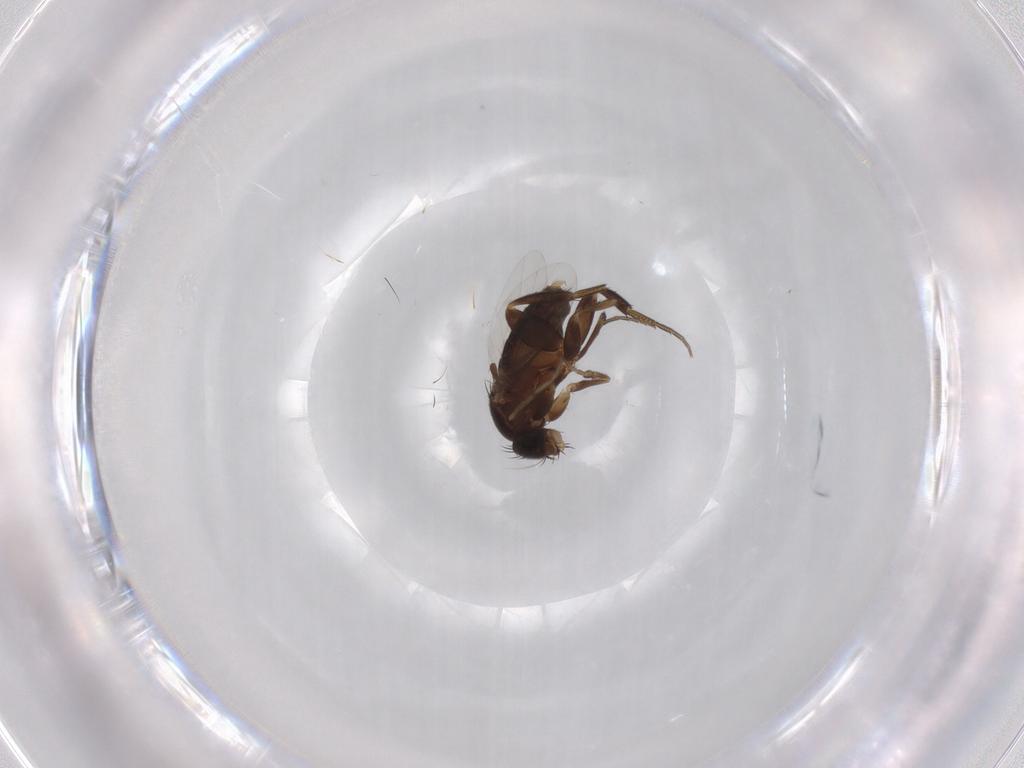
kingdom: Animalia
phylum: Arthropoda
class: Insecta
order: Diptera
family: Phoridae
